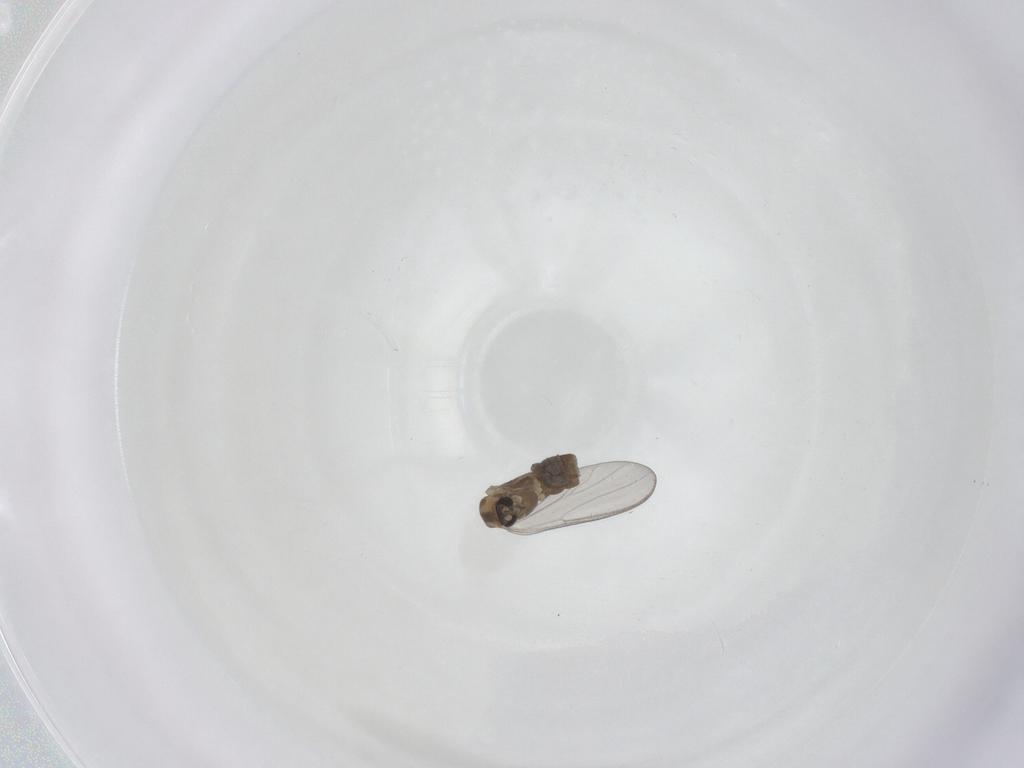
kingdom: Animalia
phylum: Arthropoda
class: Insecta
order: Diptera
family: Chironomidae
